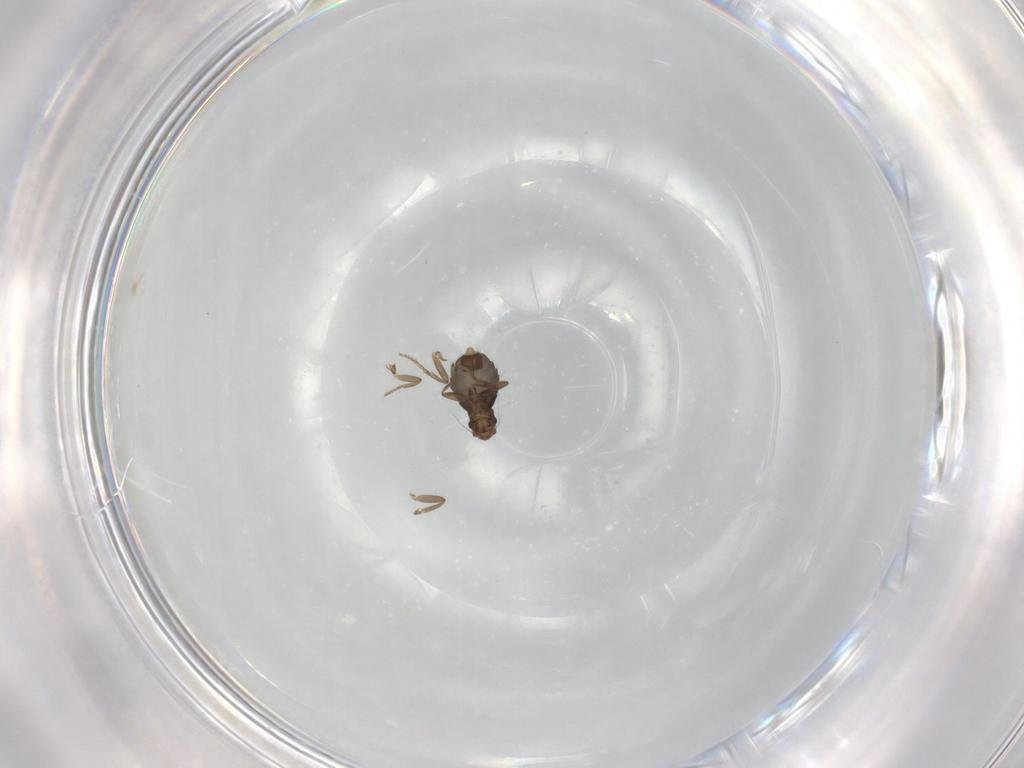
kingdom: Animalia
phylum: Arthropoda
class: Insecta
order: Diptera
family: Phoridae
